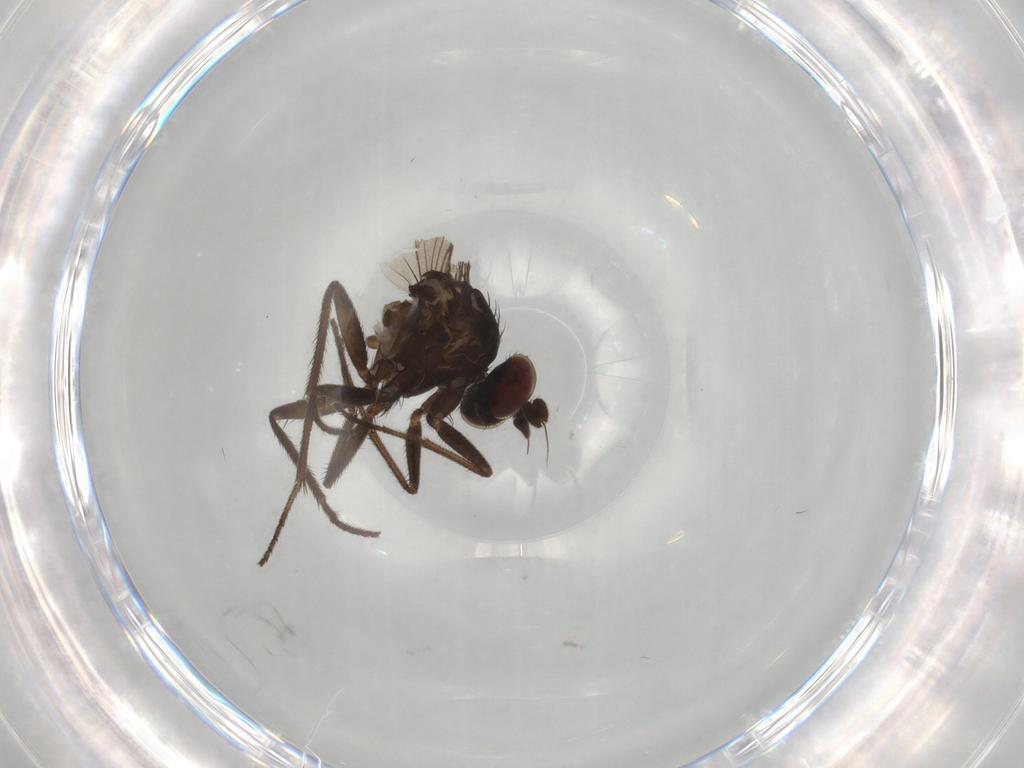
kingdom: Animalia
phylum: Arthropoda
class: Insecta
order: Diptera
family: Dolichopodidae
